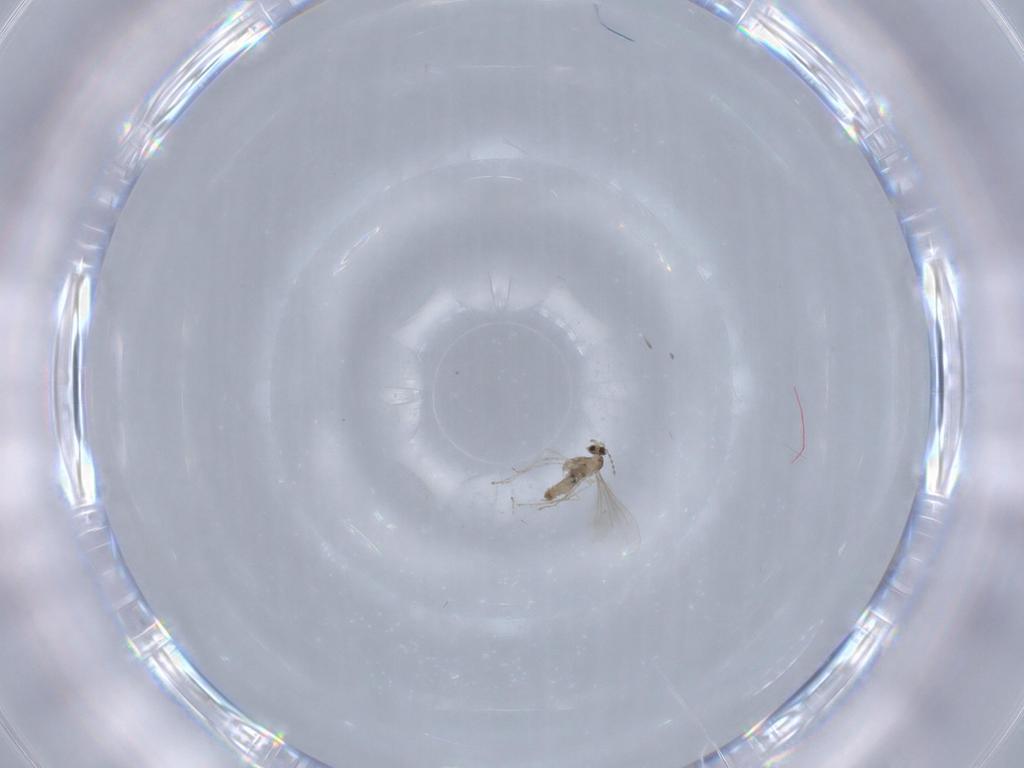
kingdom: Animalia
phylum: Arthropoda
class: Insecta
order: Diptera
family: Cecidomyiidae
